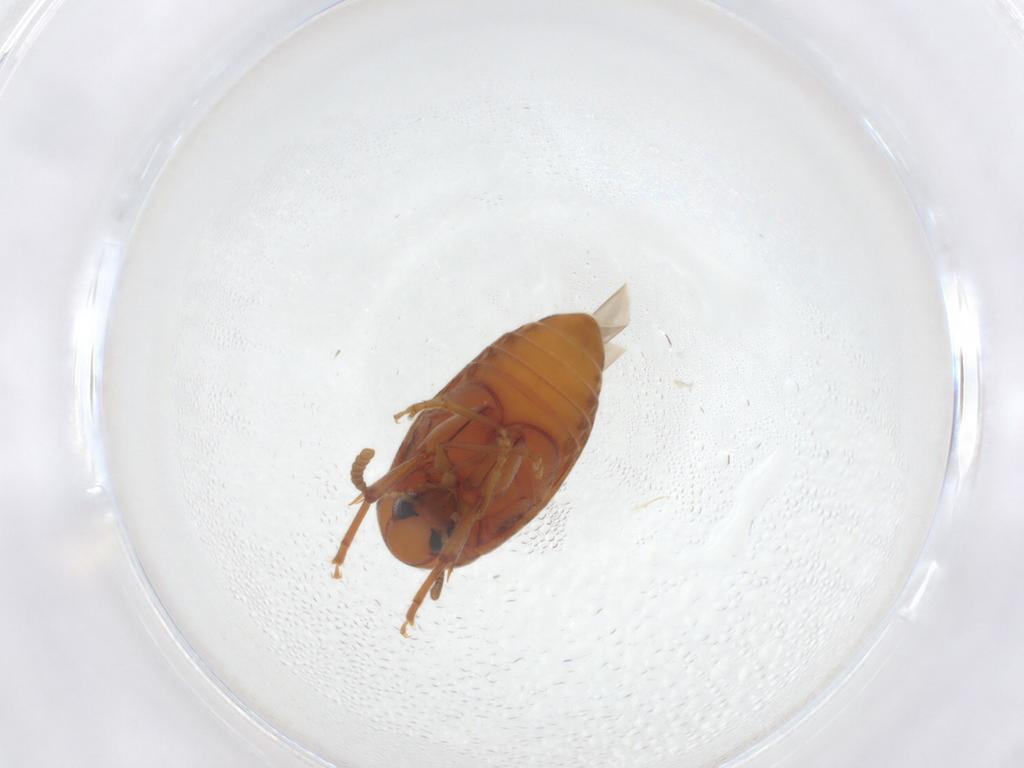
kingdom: Animalia
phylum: Arthropoda
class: Insecta
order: Coleoptera
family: Chrysomelidae
